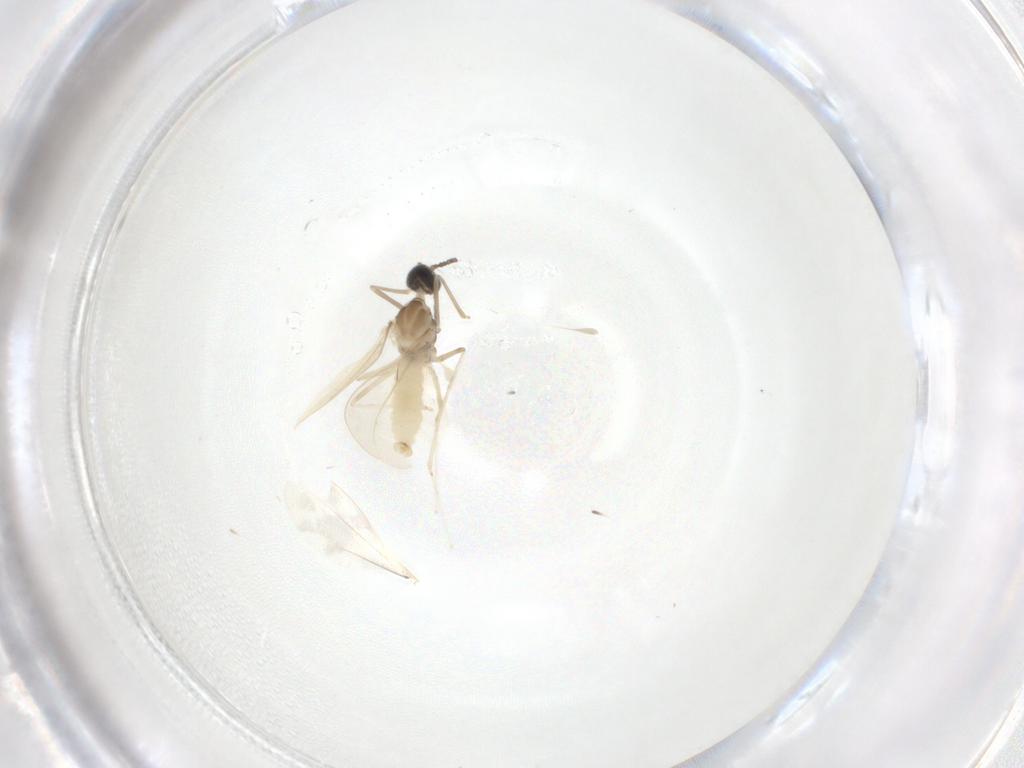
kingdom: Animalia
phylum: Arthropoda
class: Insecta
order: Diptera
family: Cecidomyiidae
